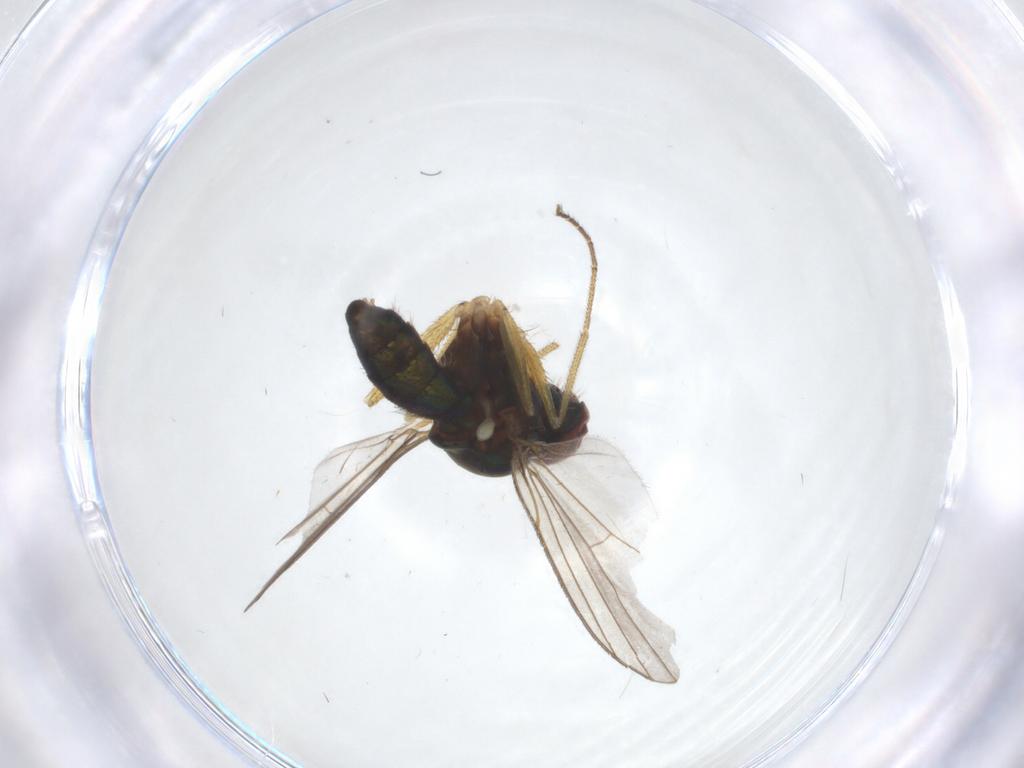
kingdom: Animalia
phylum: Arthropoda
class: Insecta
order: Diptera
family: Dolichopodidae
